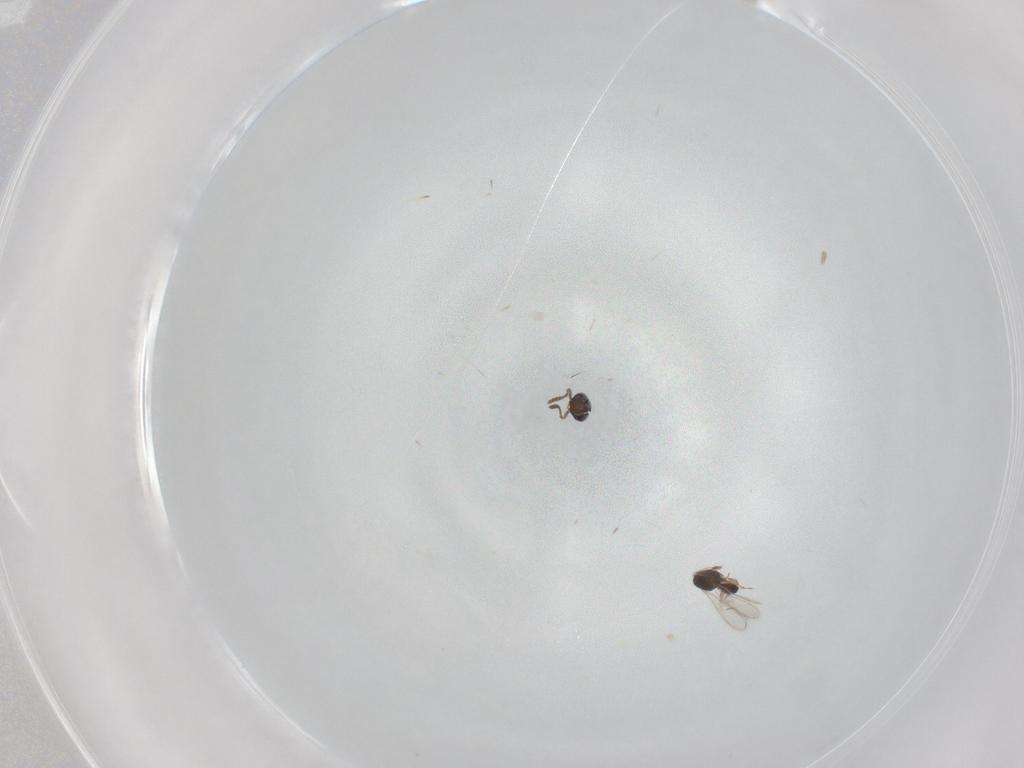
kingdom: Animalia
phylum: Arthropoda
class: Insecta
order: Hymenoptera
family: Scelionidae
